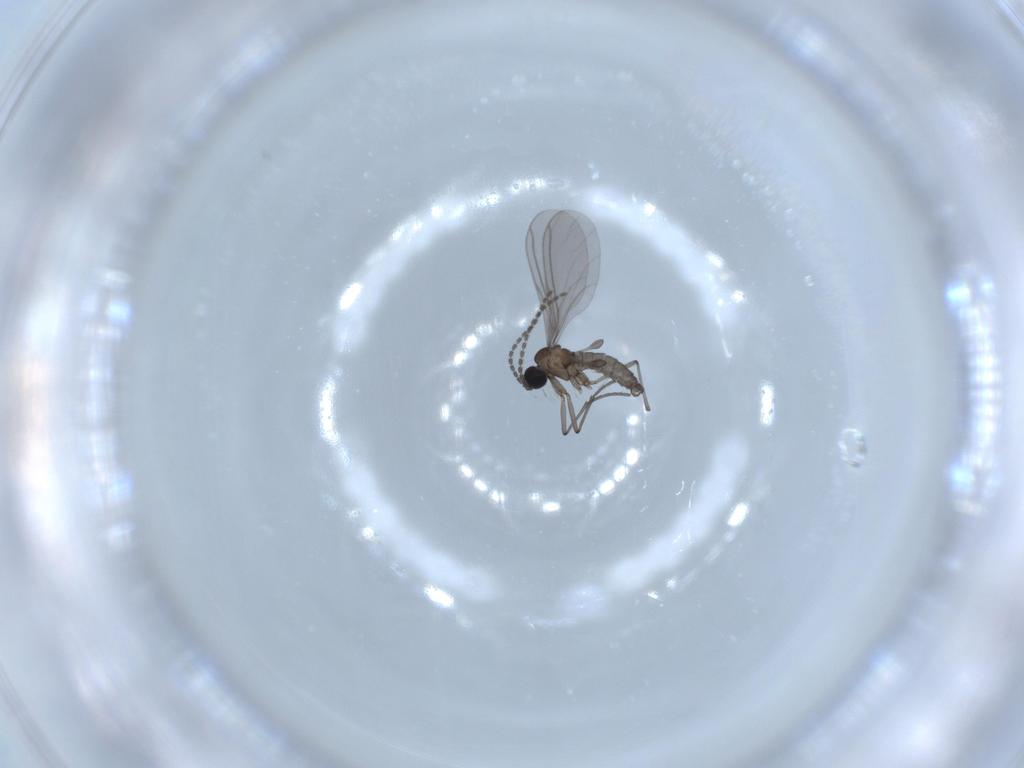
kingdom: Animalia
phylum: Arthropoda
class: Insecta
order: Diptera
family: Sciaridae
